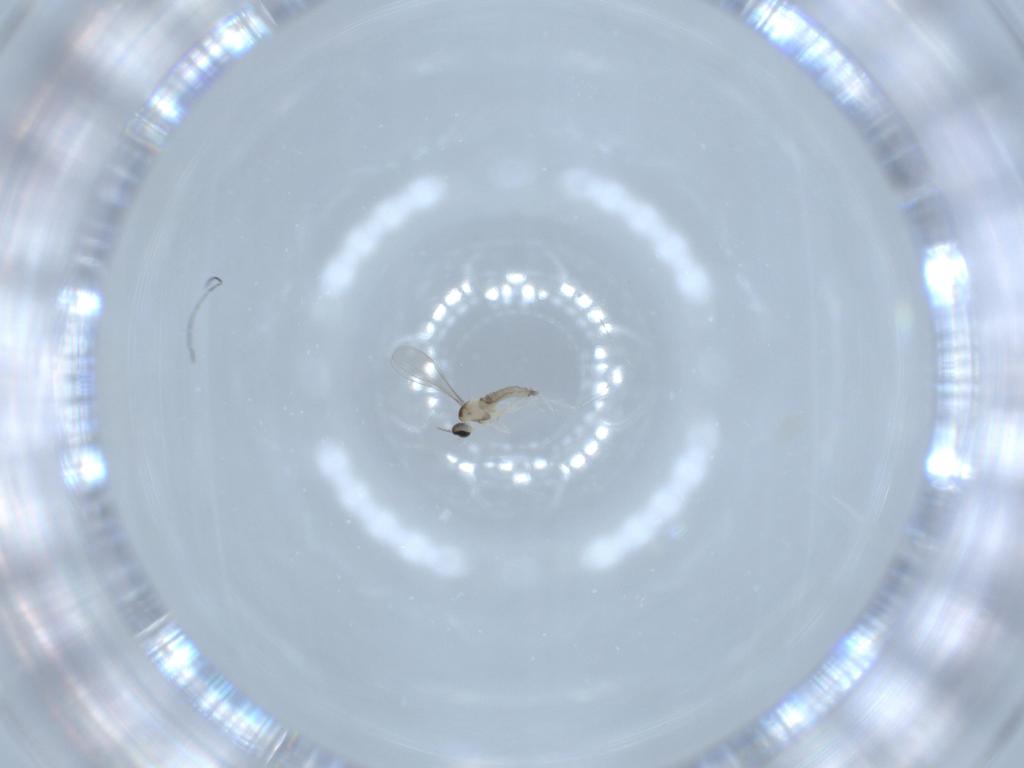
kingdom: Animalia
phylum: Arthropoda
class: Insecta
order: Diptera
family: Cecidomyiidae
